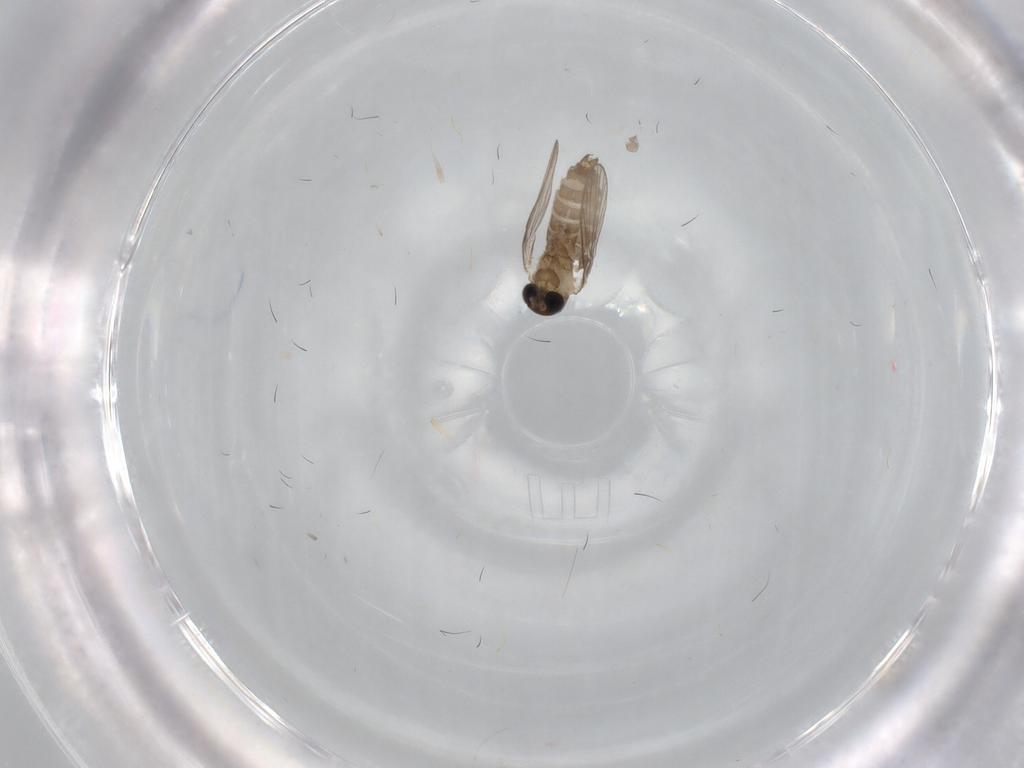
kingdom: Animalia
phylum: Arthropoda
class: Insecta
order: Diptera
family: Psychodidae
